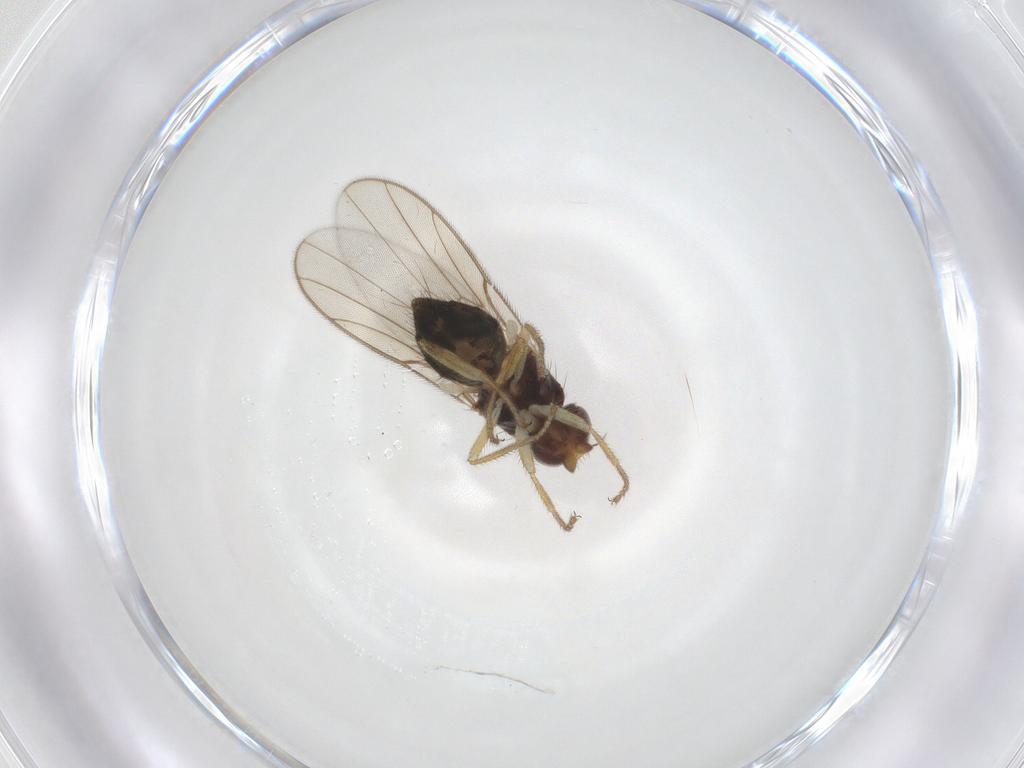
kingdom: Animalia
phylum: Arthropoda
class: Insecta
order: Diptera
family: Chloropidae
